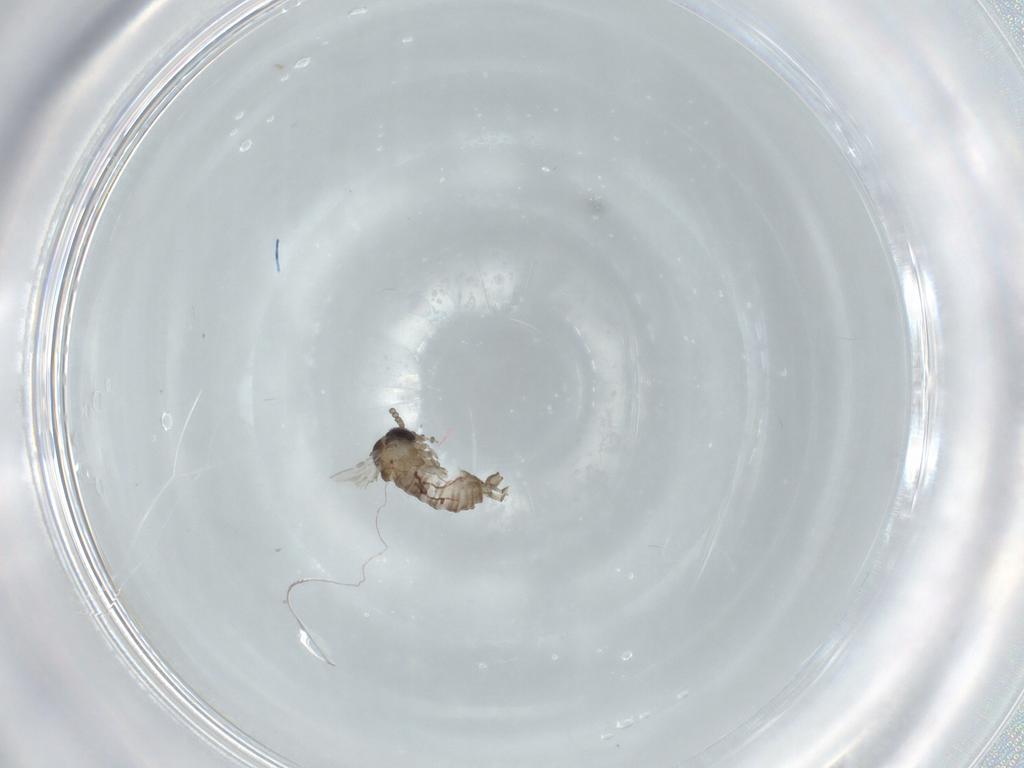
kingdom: Animalia
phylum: Arthropoda
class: Insecta
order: Diptera
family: Psychodidae
